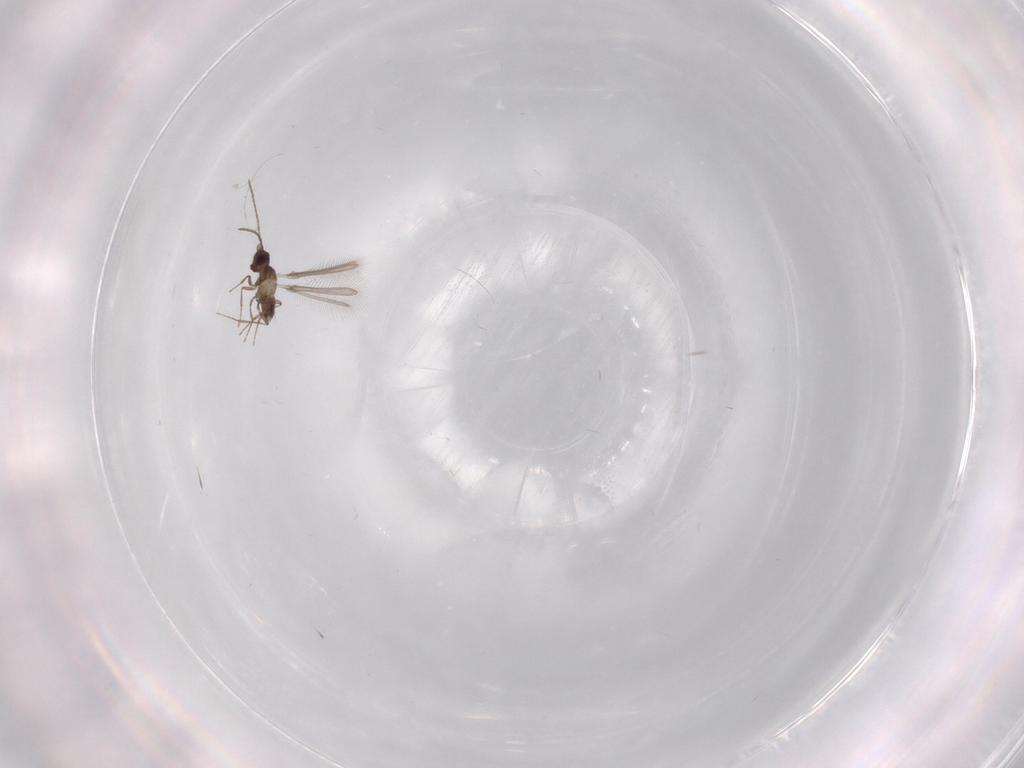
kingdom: Animalia
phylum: Arthropoda
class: Insecta
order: Hymenoptera
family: Mymaridae
